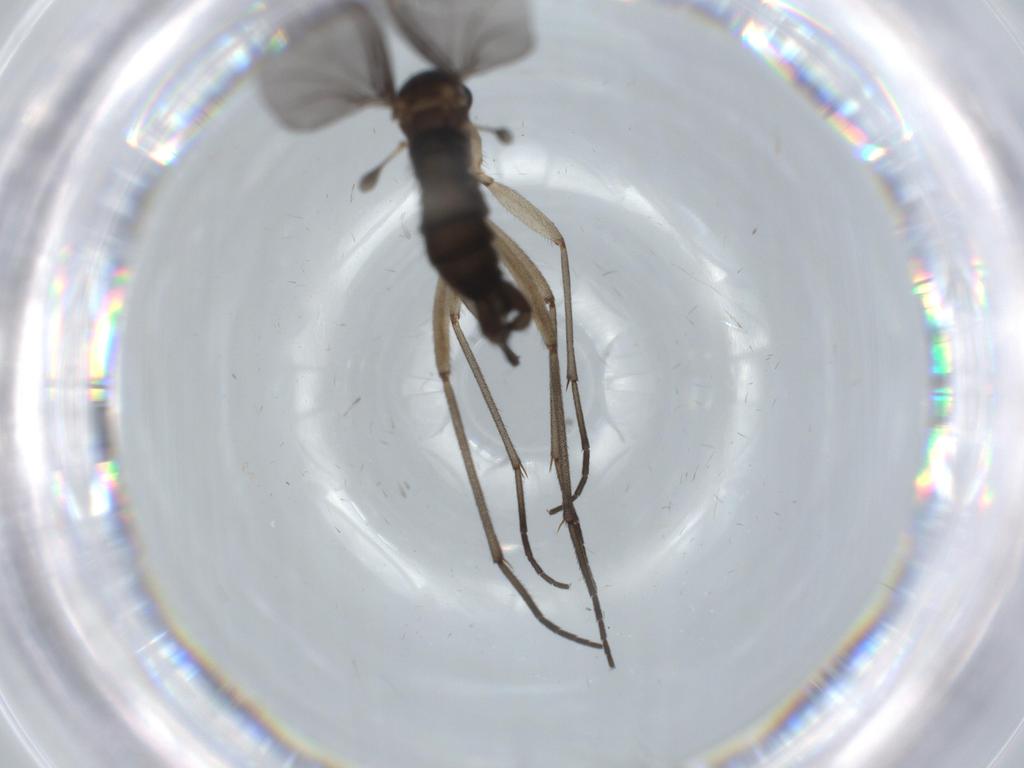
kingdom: Animalia
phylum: Arthropoda
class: Insecta
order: Diptera
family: Sciaridae
